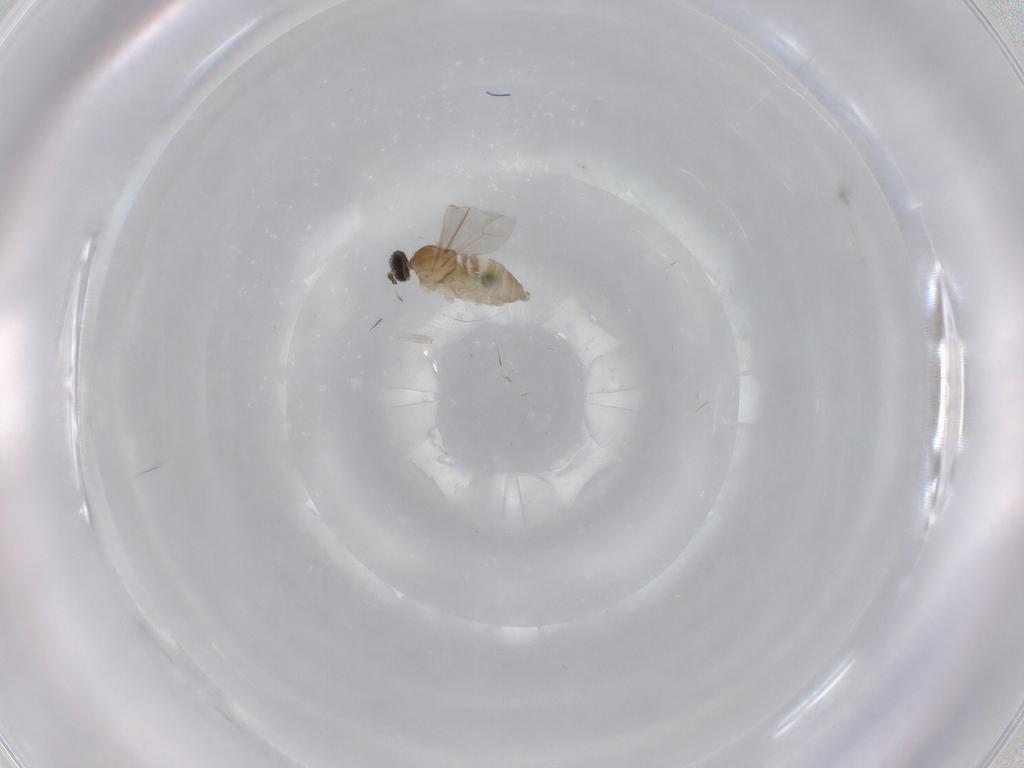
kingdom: Animalia
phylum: Arthropoda
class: Insecta
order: Diptera
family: Cecidomyiidae
